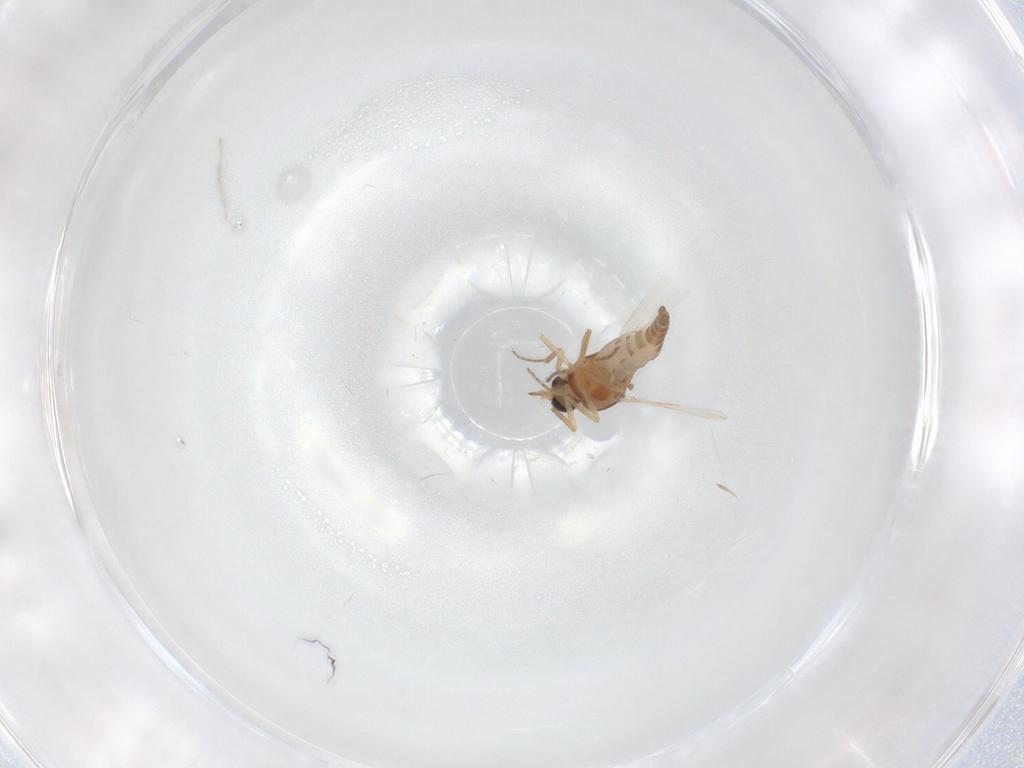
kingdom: Animalia
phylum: Arthropoda
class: Insecta
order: Diptera
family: Ceratopogonidae
